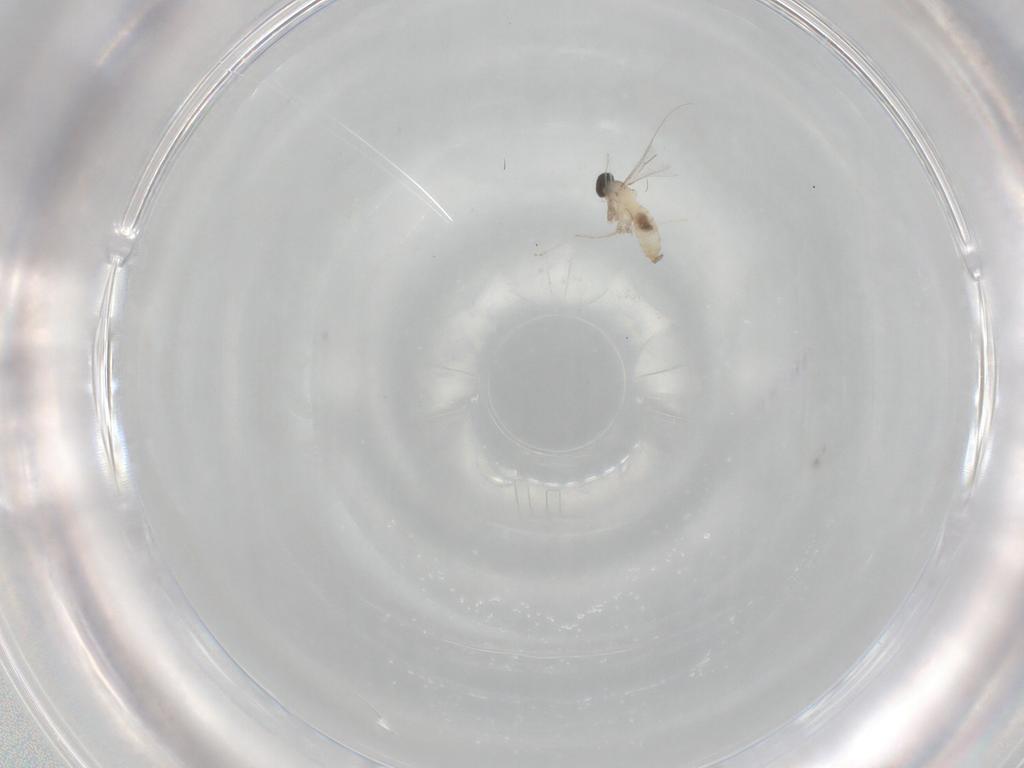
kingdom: Animalia
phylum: Arthropoda
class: Insecta
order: Diptera
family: Cecidomyiidae
